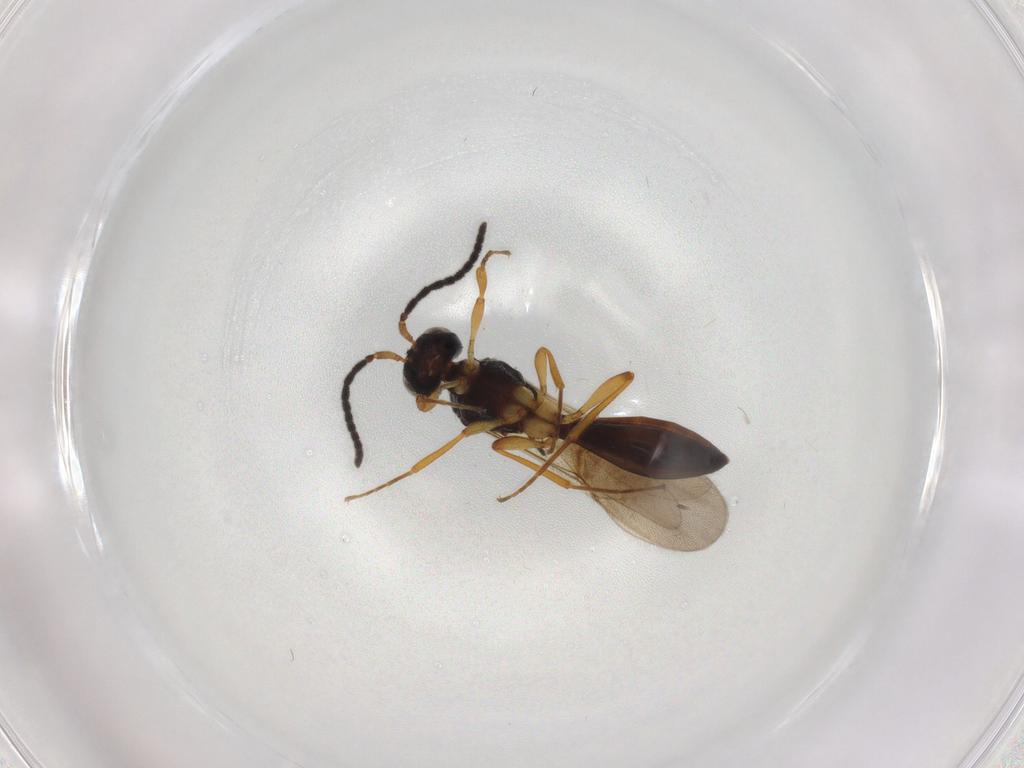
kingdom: Animalia
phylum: Arthropoda
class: Insecta
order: Hymenoptera
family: Scelionidae
